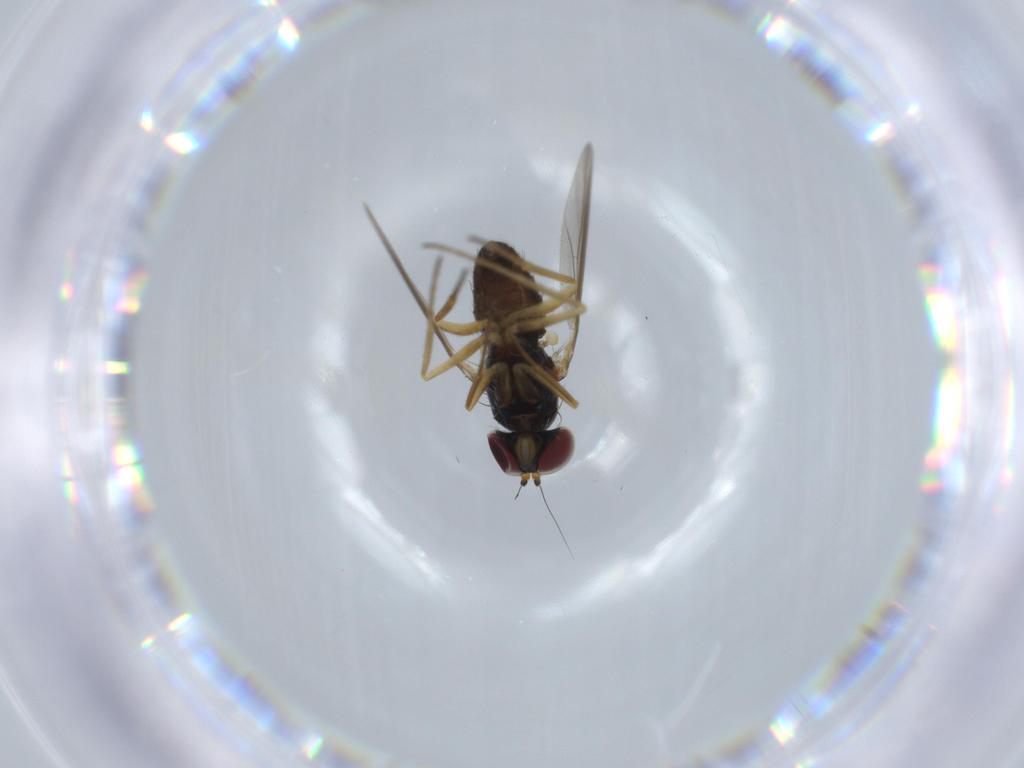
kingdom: Animalia
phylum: Arthropoda
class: Insecta
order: Diptera
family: Dolichopodidae
